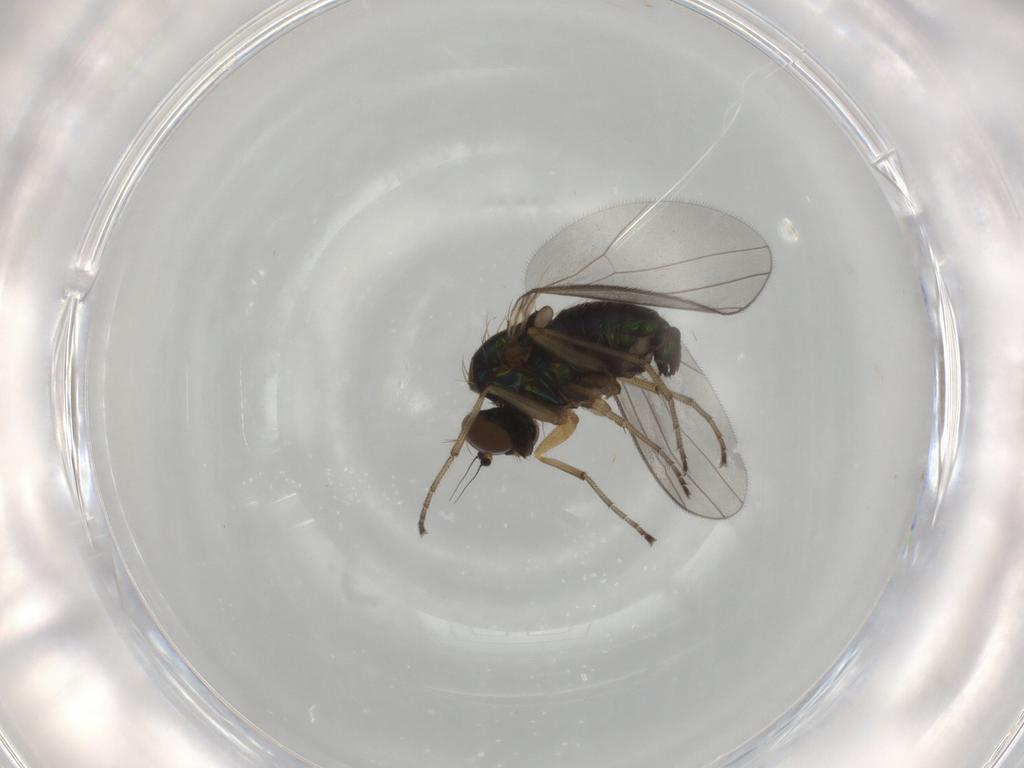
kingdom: Animalia
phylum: Arthropoda
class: Insecta
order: Diptera
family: Dolichopodidae
